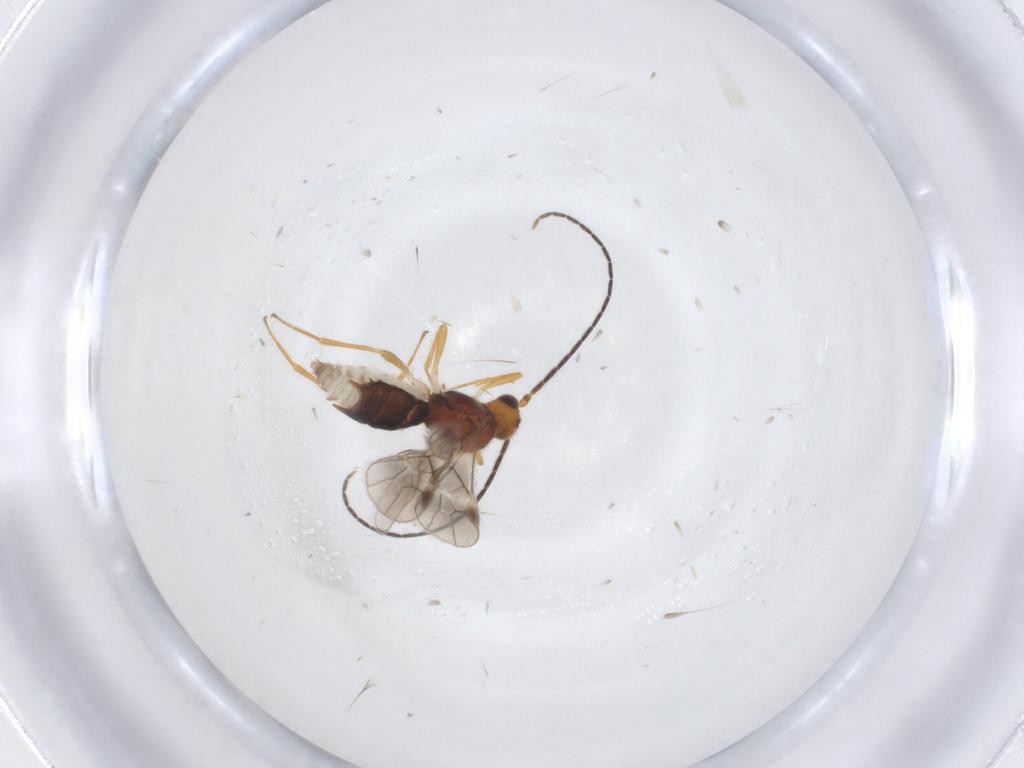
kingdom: Animalia
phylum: Arthropoda
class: Insecta
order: Hymenoptera
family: Braconidae
